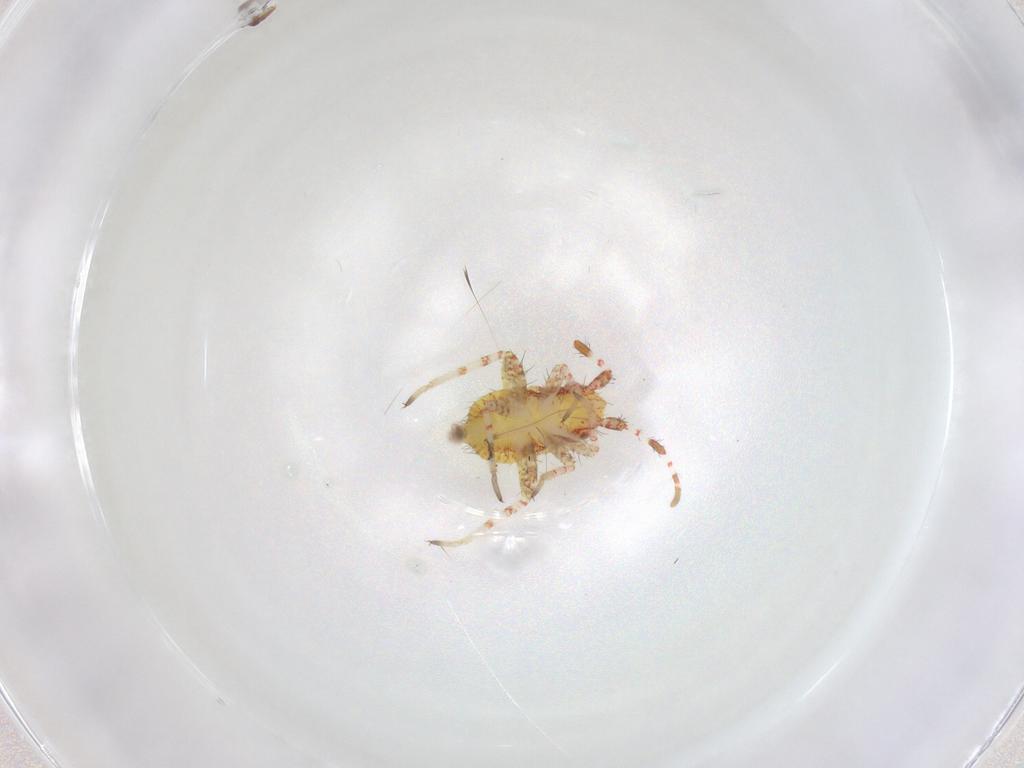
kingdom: Animalia
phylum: Arthropoda
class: Insecta
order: Hemiptera
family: Miridae
